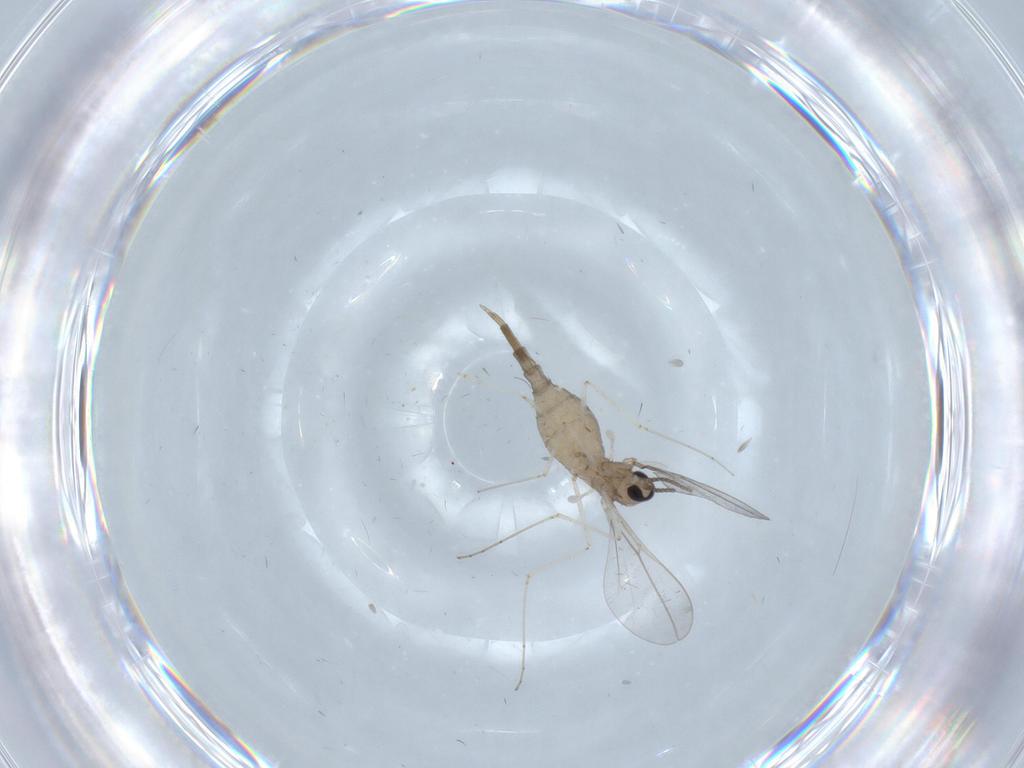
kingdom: Animalia
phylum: Arthropoda
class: Insecta
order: Diptera
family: Cecidomyiidae
